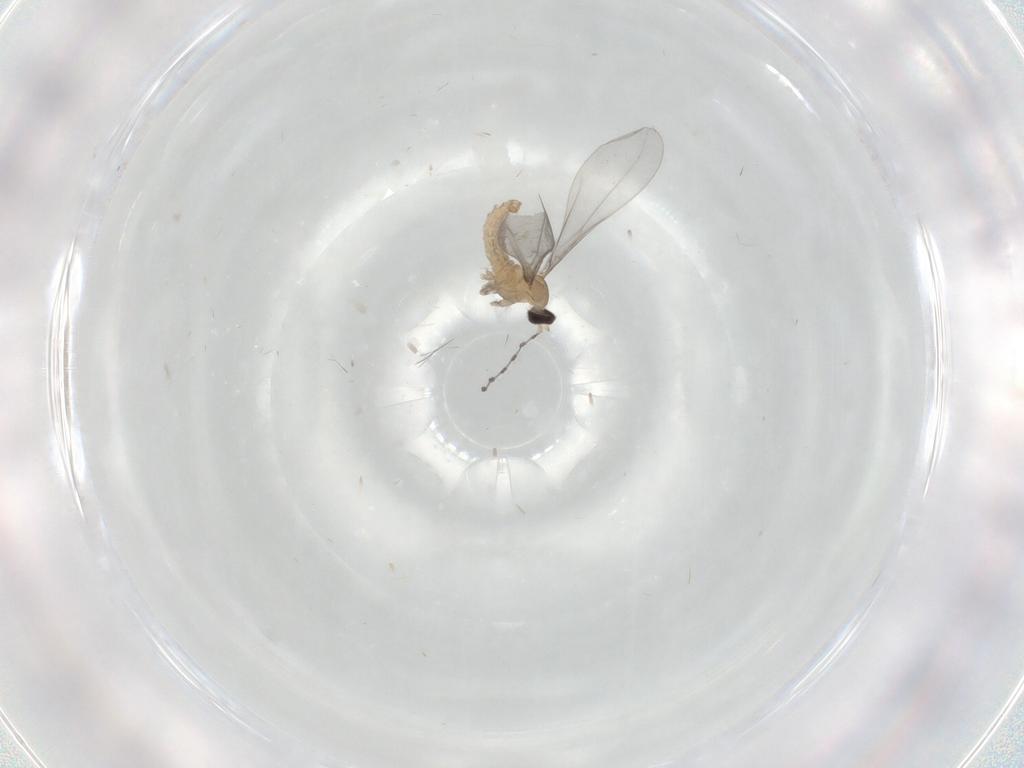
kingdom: Animalia
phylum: Arthropoda
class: Insecta
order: Diptera
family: Cecidomyiidae
